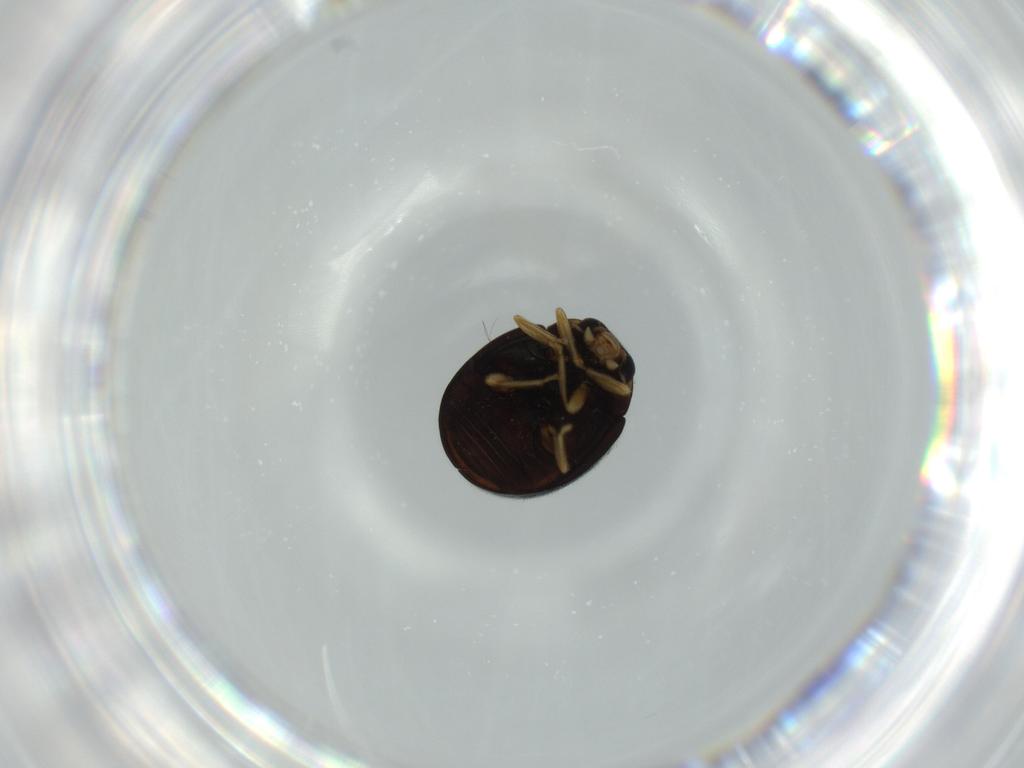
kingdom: Animalia
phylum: Arthropoda
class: Insecta
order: Coleoptera
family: Coccinellidae
